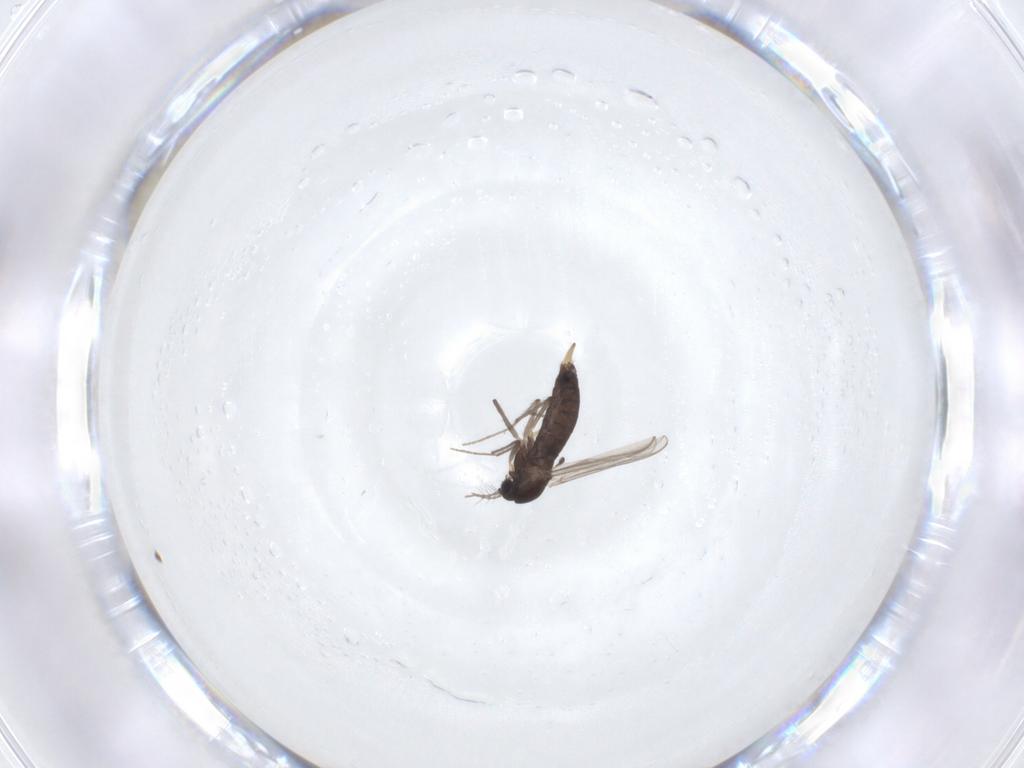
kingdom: Animalia
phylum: Arthropoda
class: Insecta
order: Diptera
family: Chironomidae
